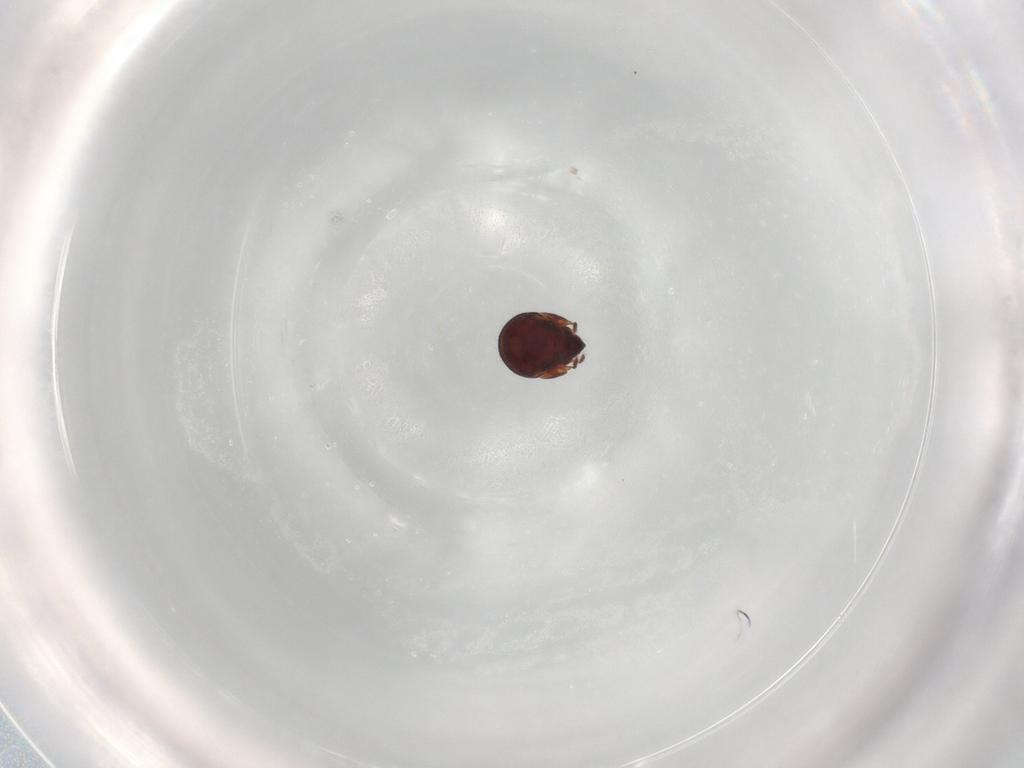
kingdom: Animalia
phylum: Arthropoda
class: Arachnida
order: Sarcoptiformes
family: Humerobatidae
